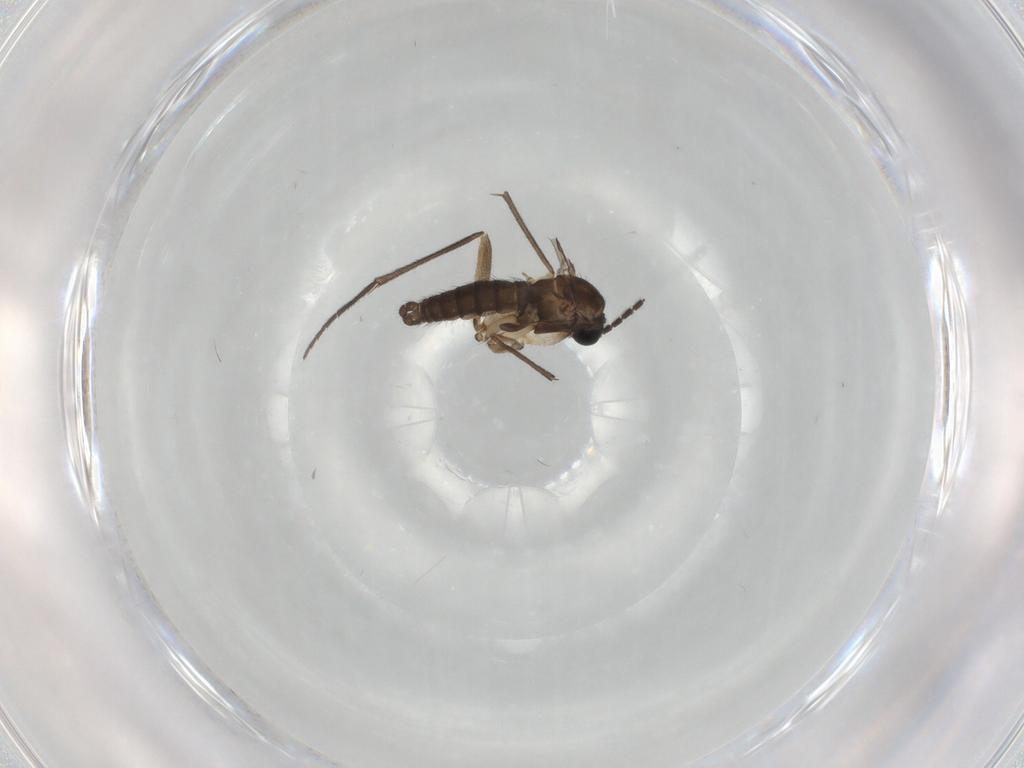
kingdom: Animalia
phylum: Arthropoda
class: Insecta
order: Diptera
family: Sciaridae
